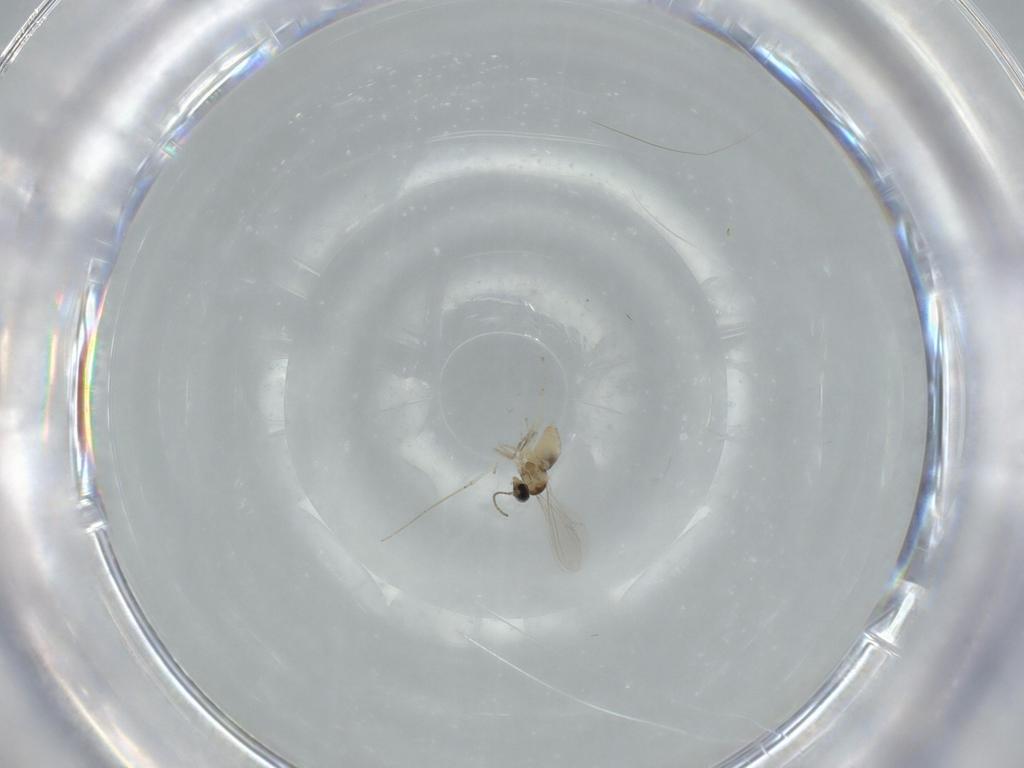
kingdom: Animalia
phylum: Arthropoda
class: Insecta
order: Diptera
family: Cecidomyiidae
